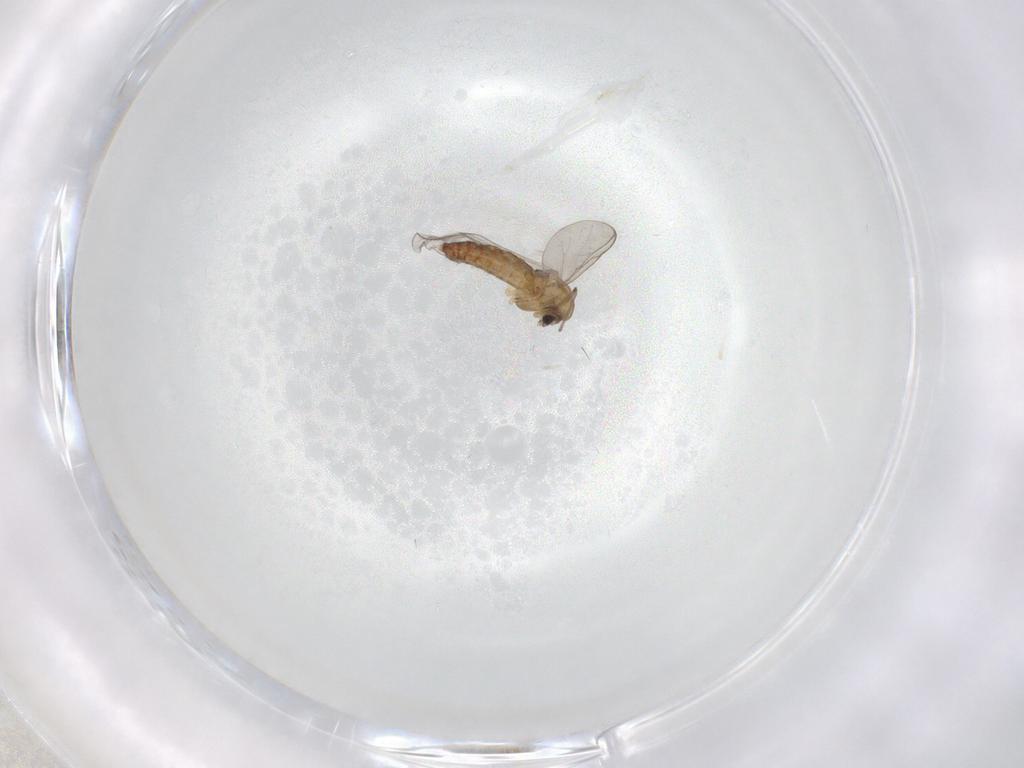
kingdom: Animalia
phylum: Arthropoda
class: Insecta
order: Diptera
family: Chironomidae
